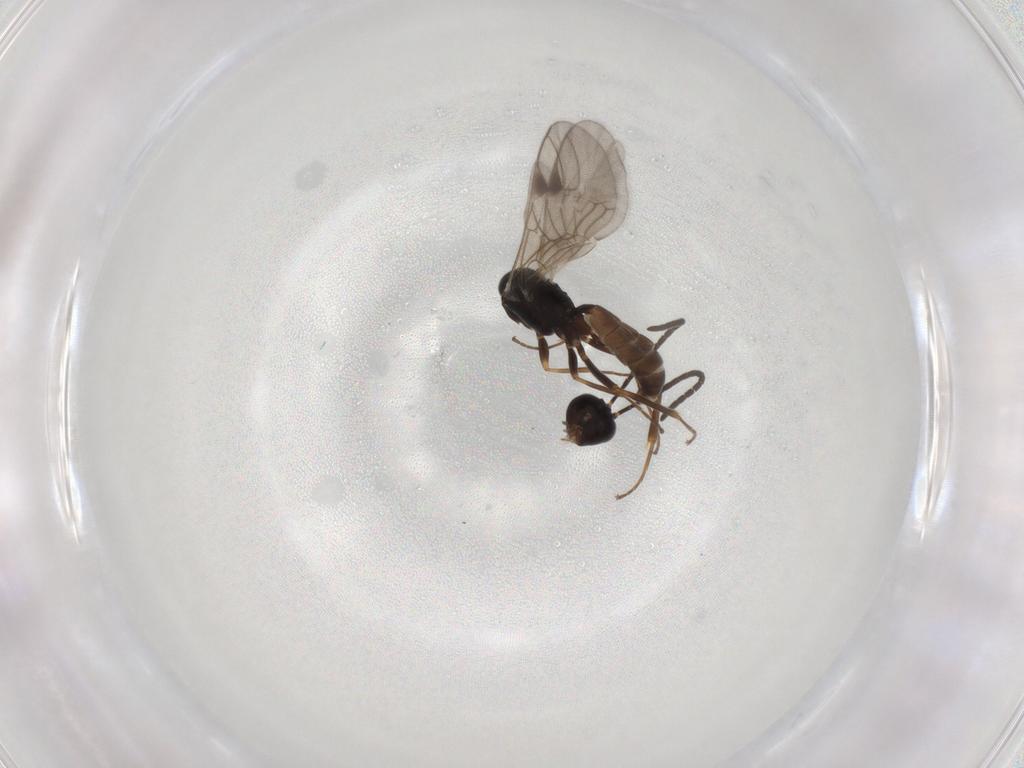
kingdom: Animalia
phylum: Arthropoda
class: Insecta
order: Hymenoptera
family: Ichneumonidae
